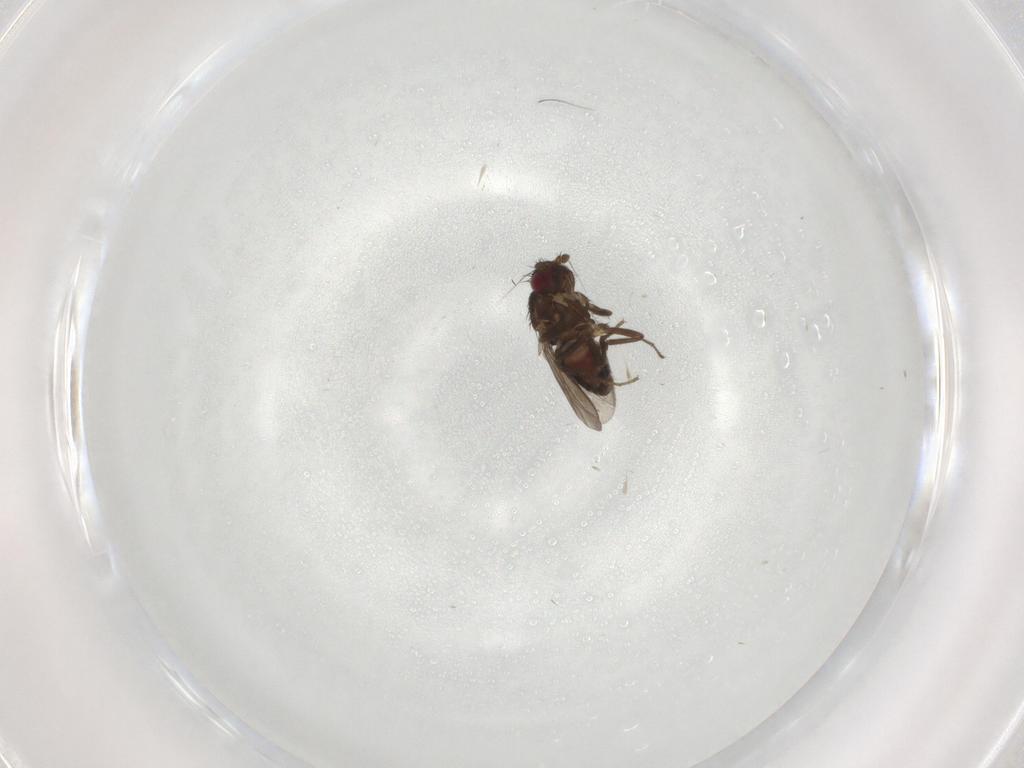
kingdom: Animalia
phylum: Arthropoda
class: Insecta
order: Diptera
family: Sphaeroceridae
